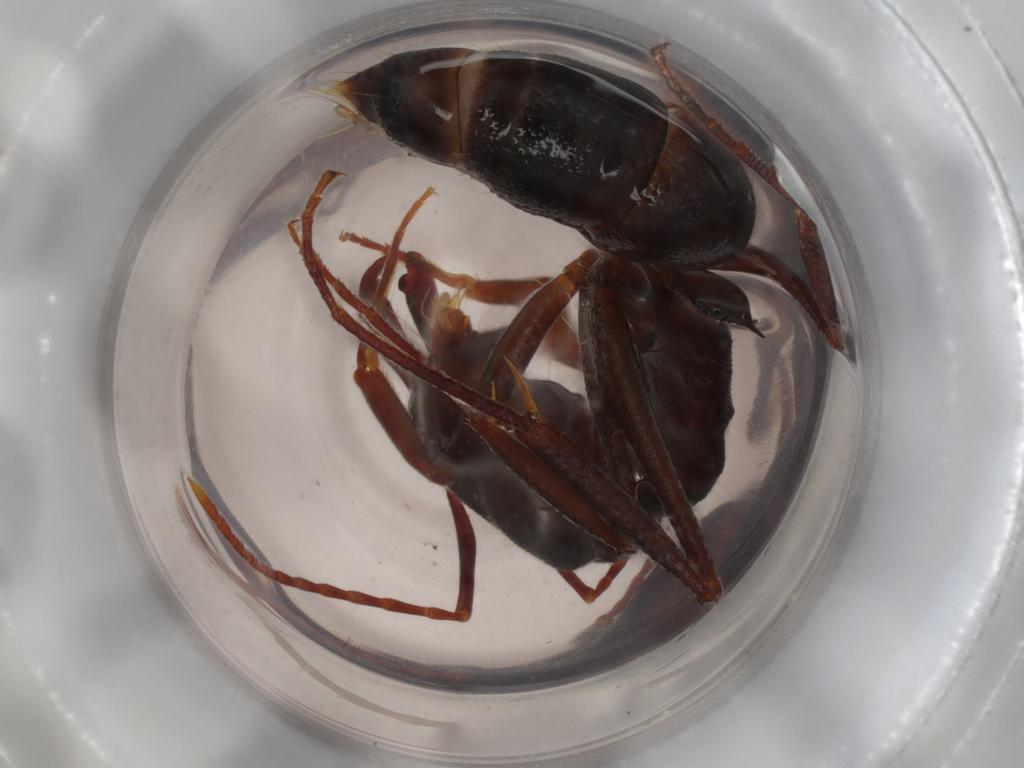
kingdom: Animalia
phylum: Arthropoda
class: Insecta
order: Hymenoptera
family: Formicidae
